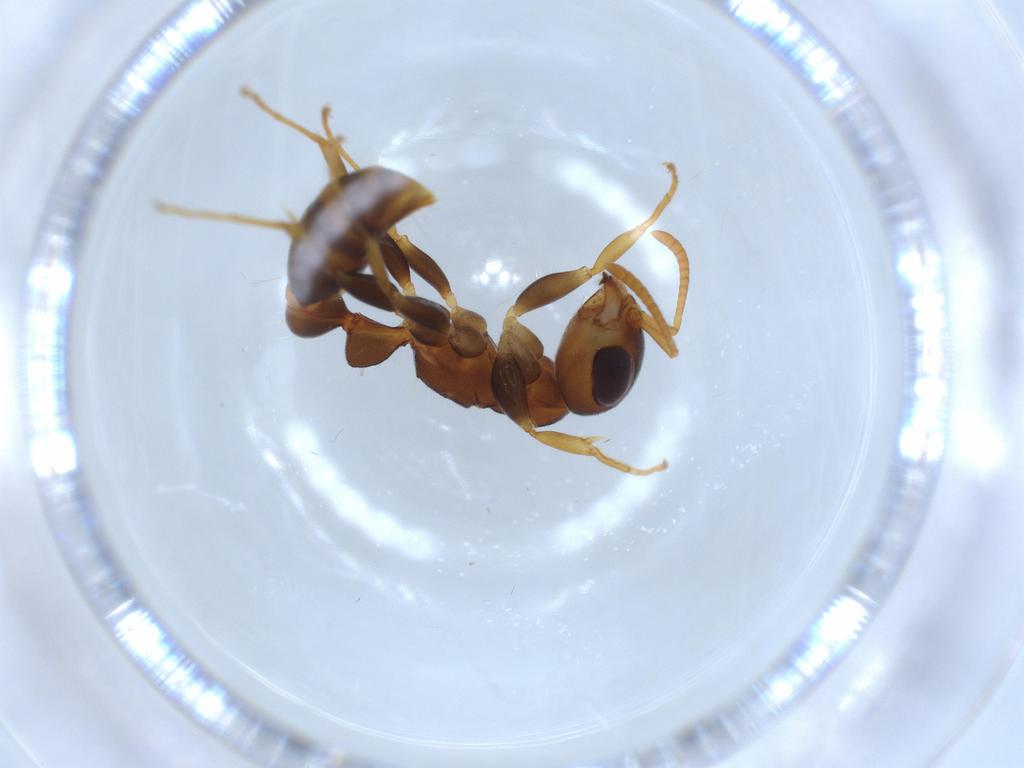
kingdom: Animalia
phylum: Arthropoda
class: Insecta
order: Hymenoptera
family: Formicidae
